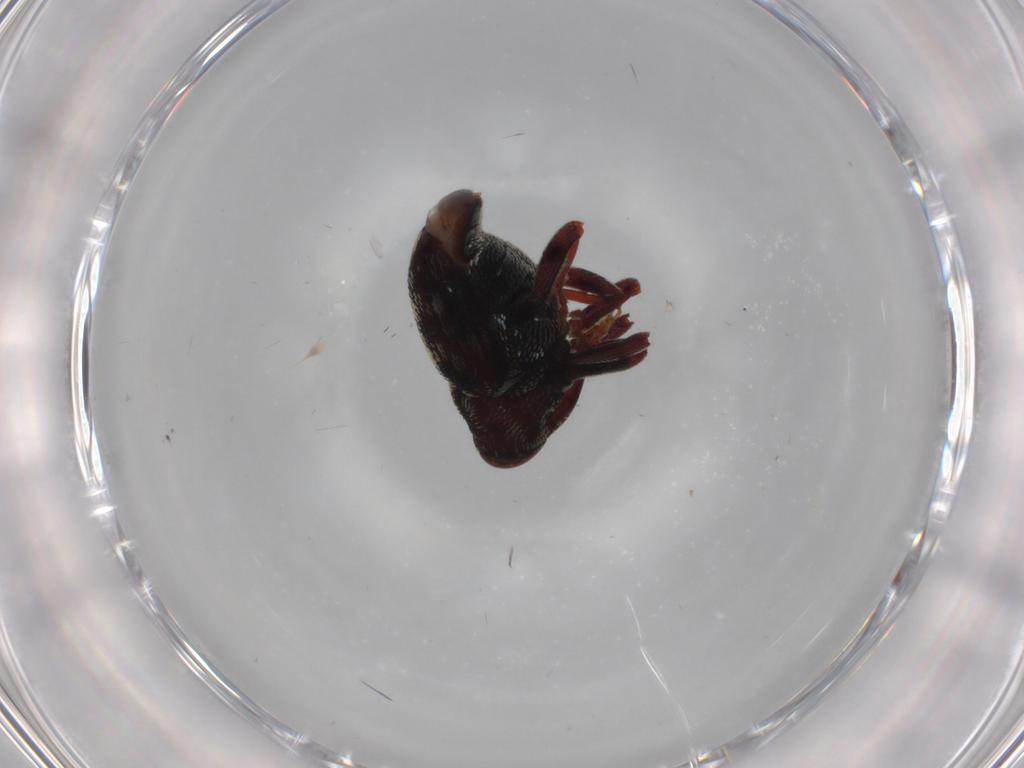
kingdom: Animalia
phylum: Arthropoda
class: Insecta
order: Coleoptera
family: Curculionidae
